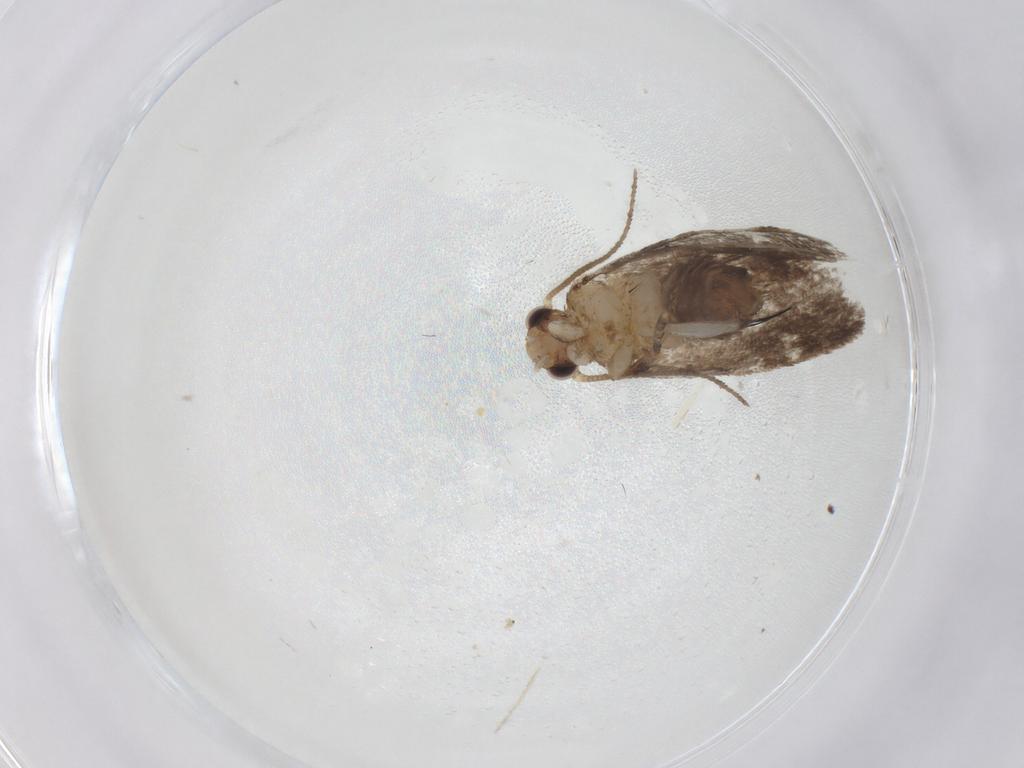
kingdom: Animalia
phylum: Arthropoda
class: Insecta
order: Lepidoptera
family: Dryadaulidae
